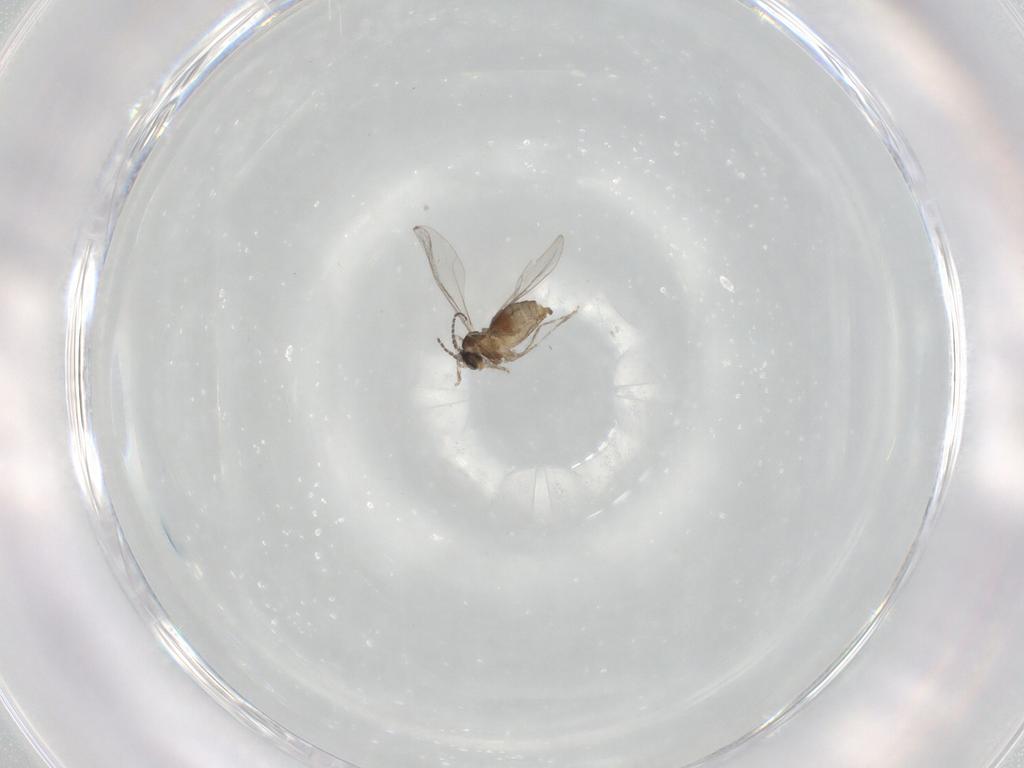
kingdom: Animalia
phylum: Arthropoda
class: Insecta
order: Diptera
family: Cecidomyiidae
